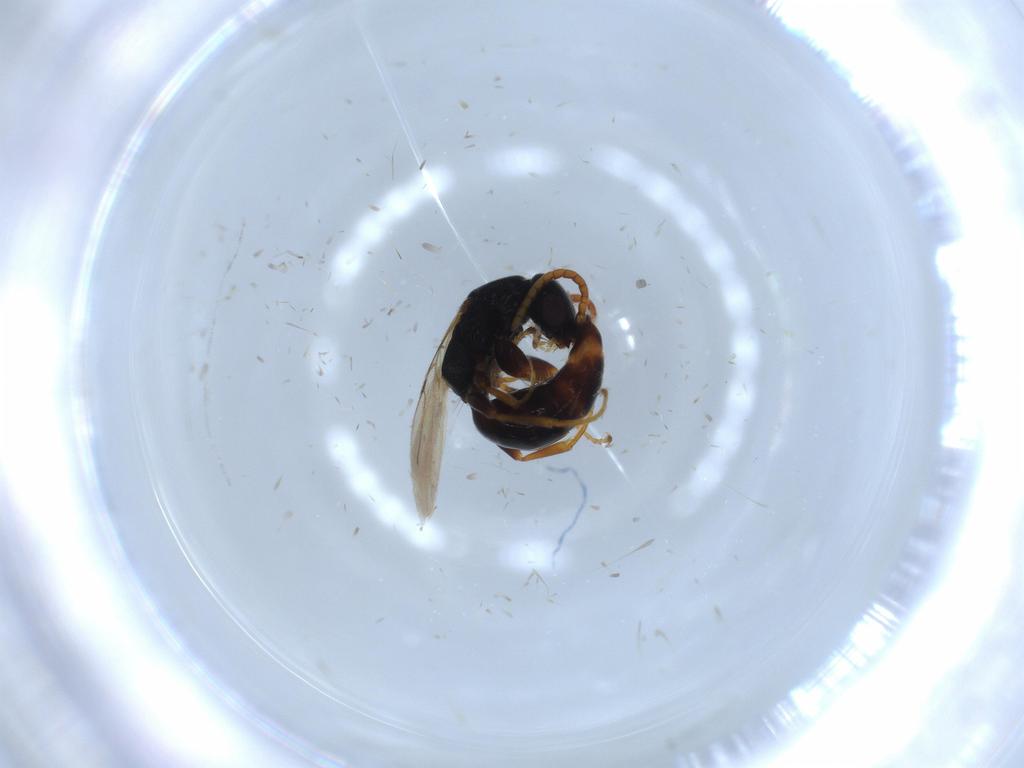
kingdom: Animalia
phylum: Arthropoda
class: Insecta
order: Hymenoptera
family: Bethylidae
